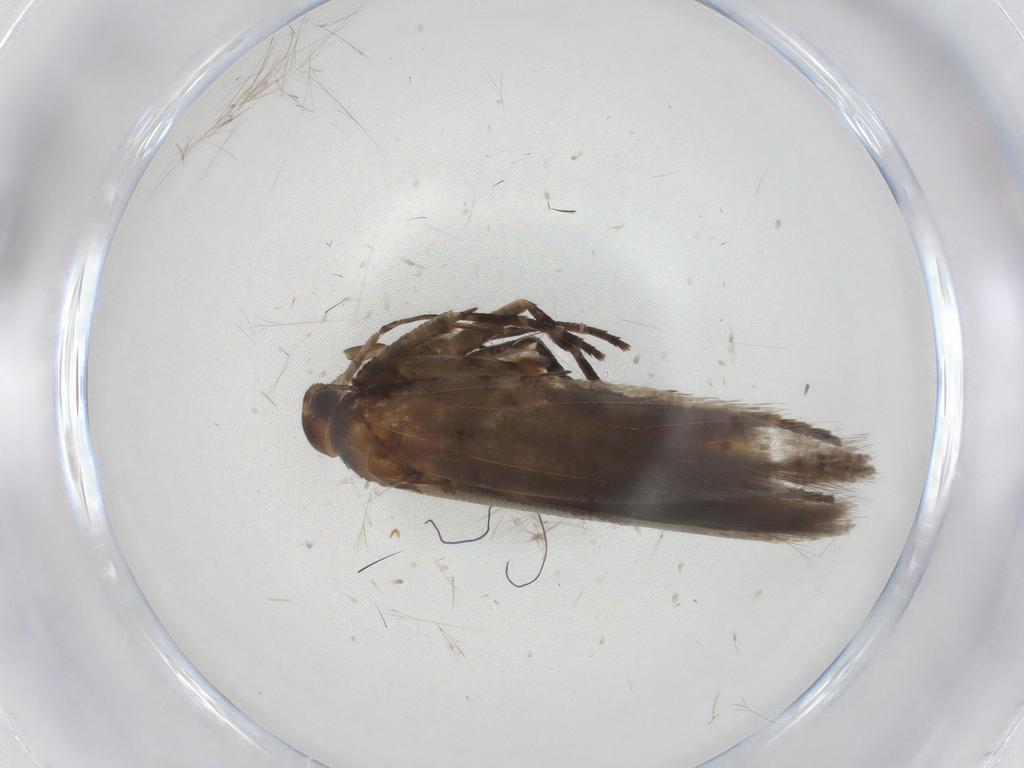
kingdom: Animalia
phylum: Arthropoda
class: Insecta
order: Lepidoptera
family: Gelechiidae
